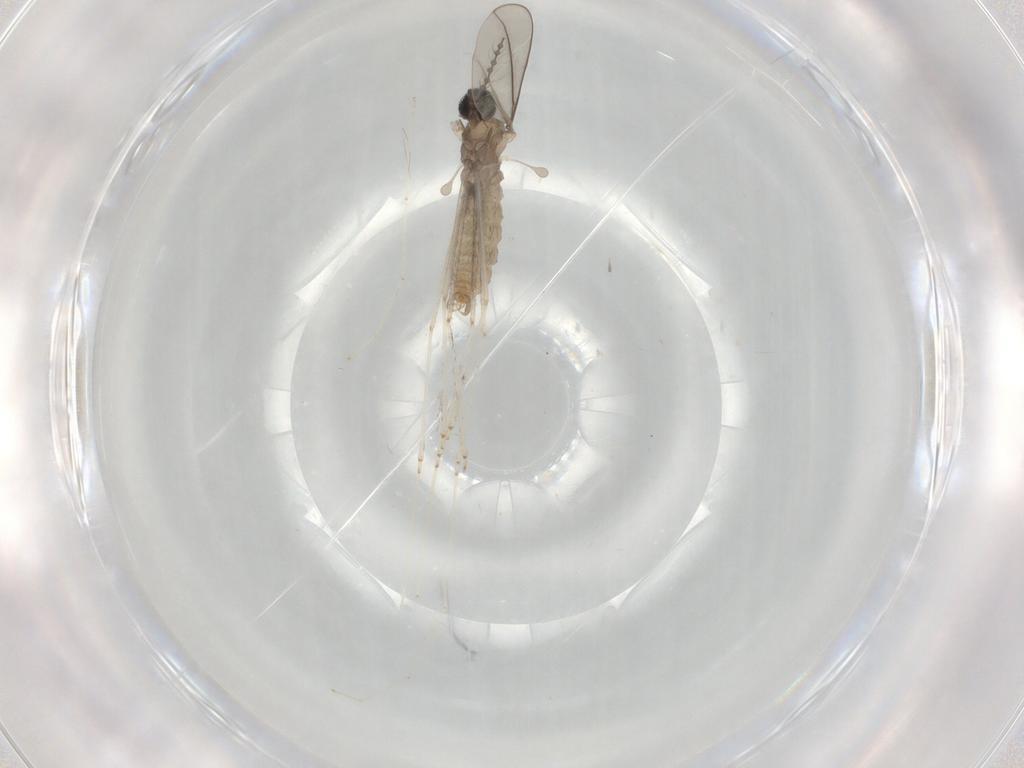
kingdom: Animalia
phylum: Arthropoda
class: Insecta
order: Diptera
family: Cecidomyiidae
